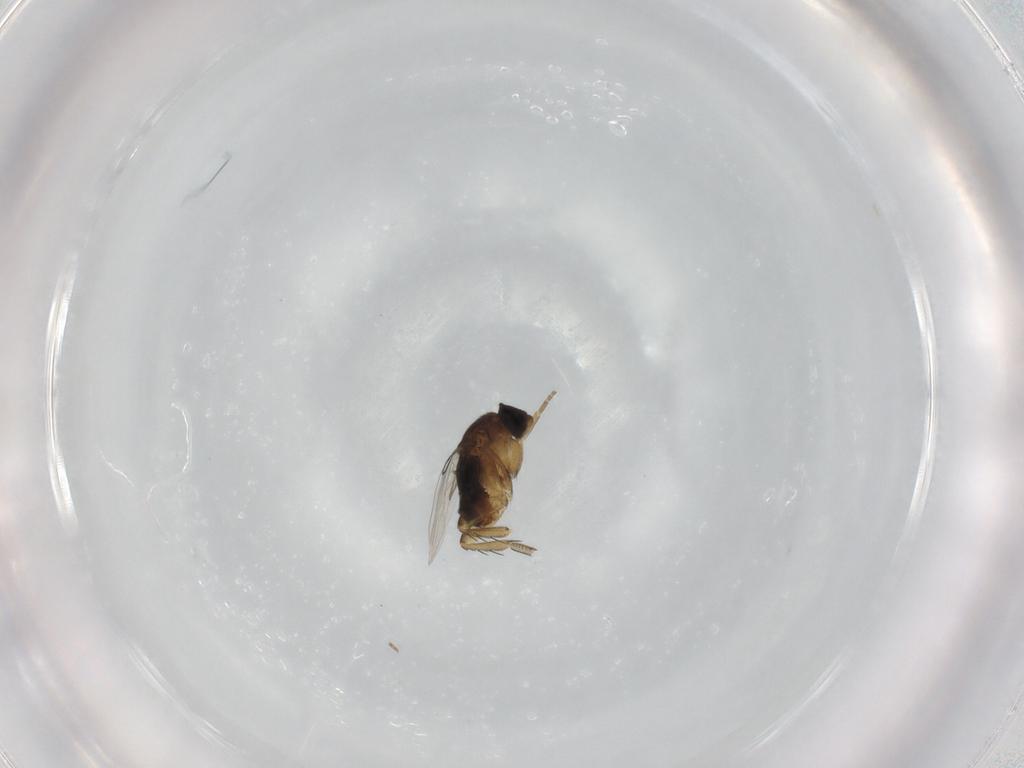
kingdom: Animalia
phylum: Arthropoda
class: Insecta
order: Diptera
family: Phoridae
